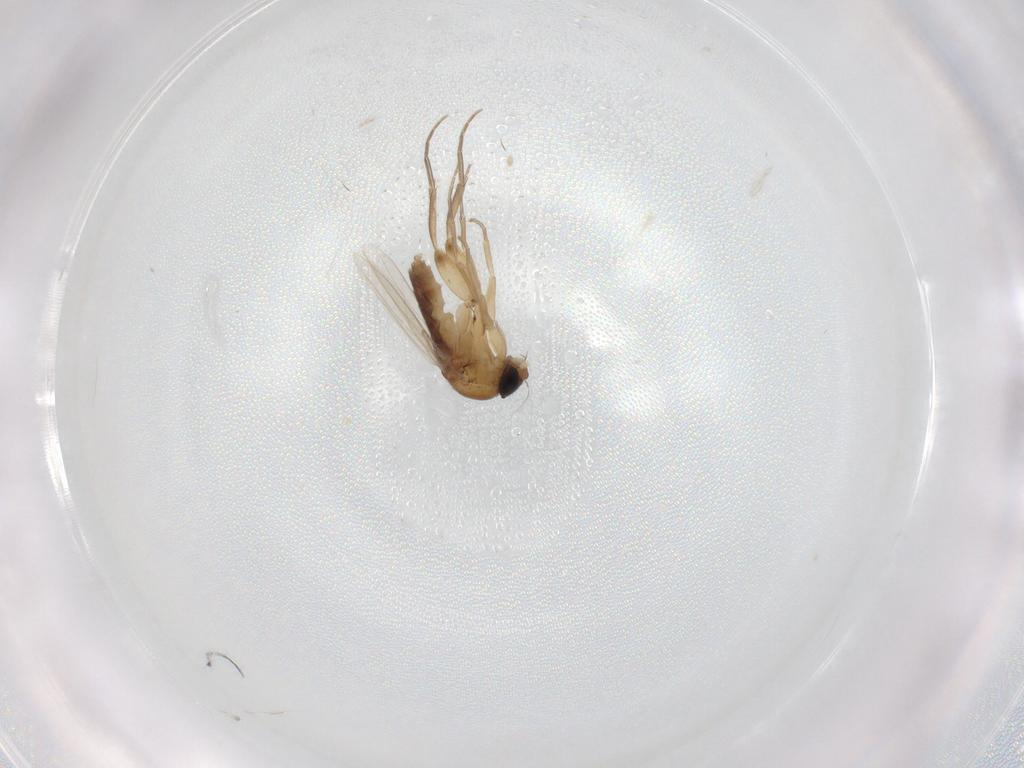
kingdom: Animalia
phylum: Arthropoda
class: Insecta
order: Diptera
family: Phoridae
